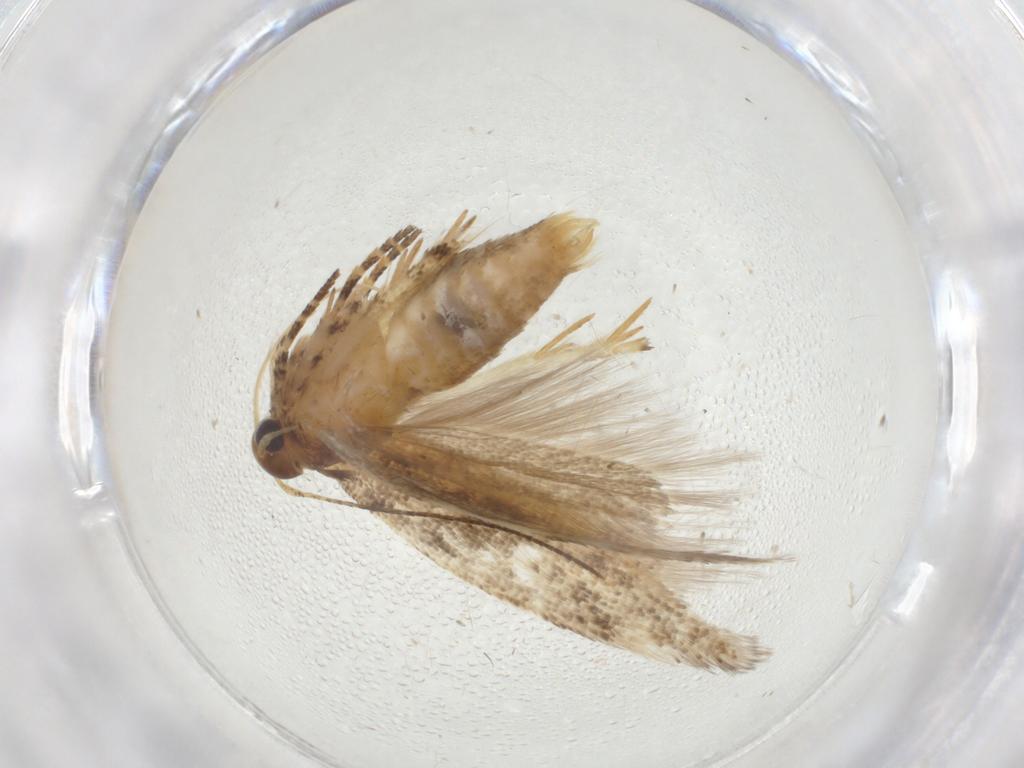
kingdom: Animalia
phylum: Arthropoda
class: Insecta
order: Lepidoptera
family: Gelechiidae
